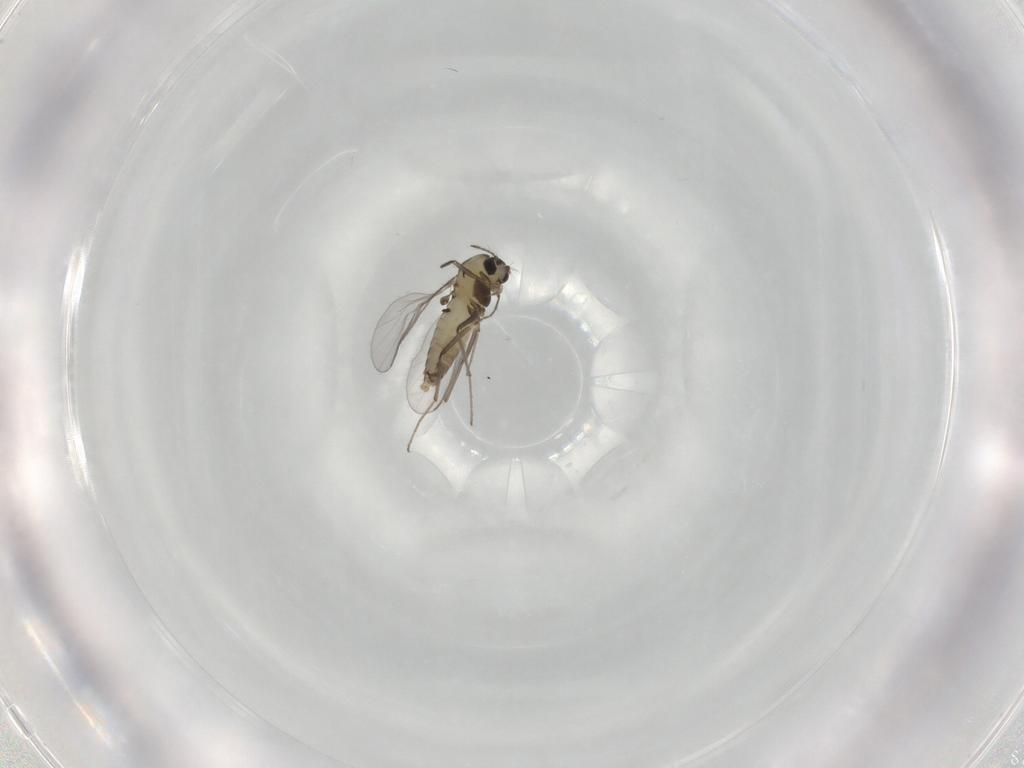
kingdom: Animalia
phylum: Arthropoda
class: Insecta
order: Diptera
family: Chironomidae
